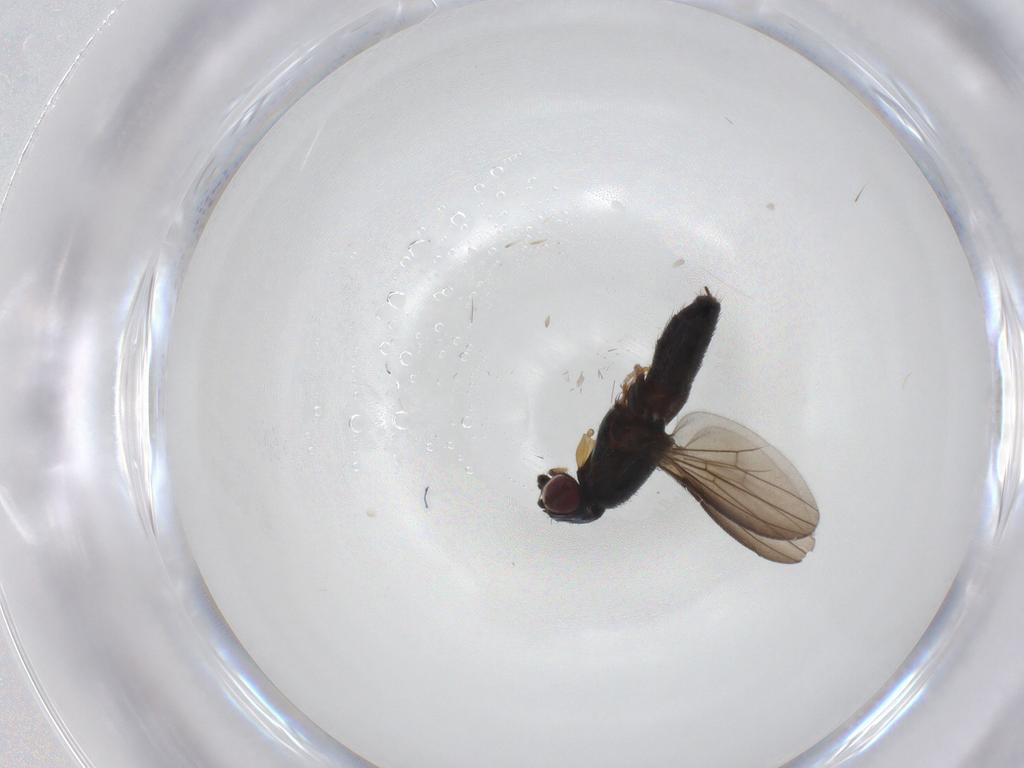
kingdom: Animalia
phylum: Arthropoda
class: Insecta
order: Diptera
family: Milichiidae
